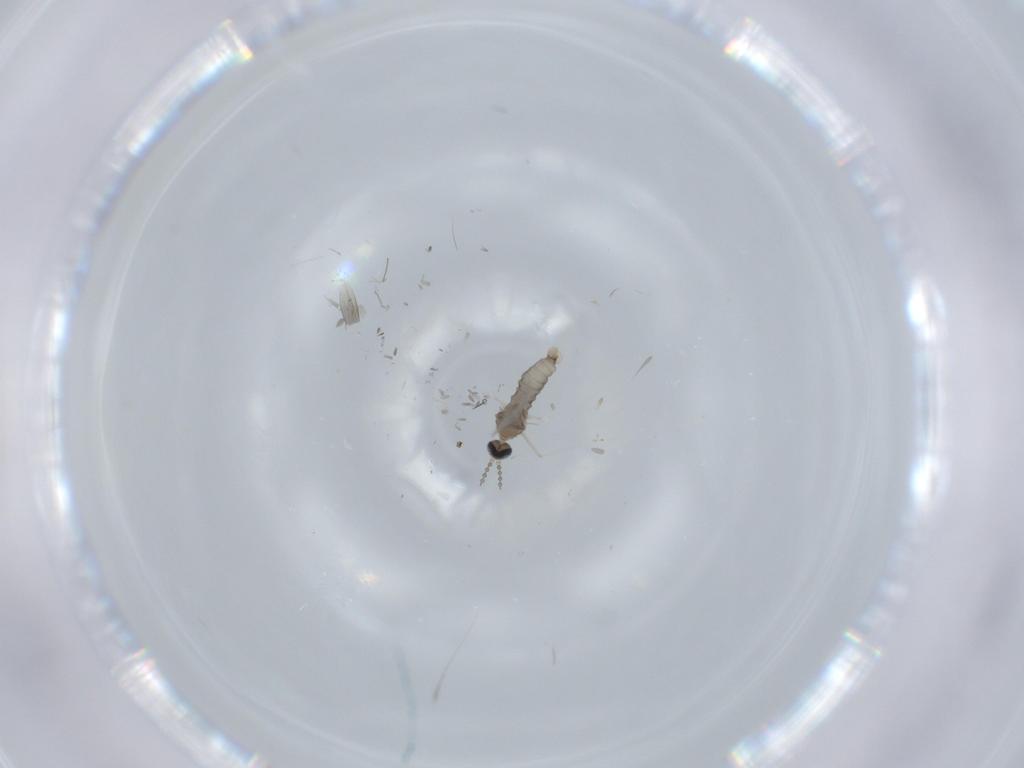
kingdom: Animalia
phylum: Arthropoda
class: Insecta
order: Diptera
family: Cecidomyiidae
